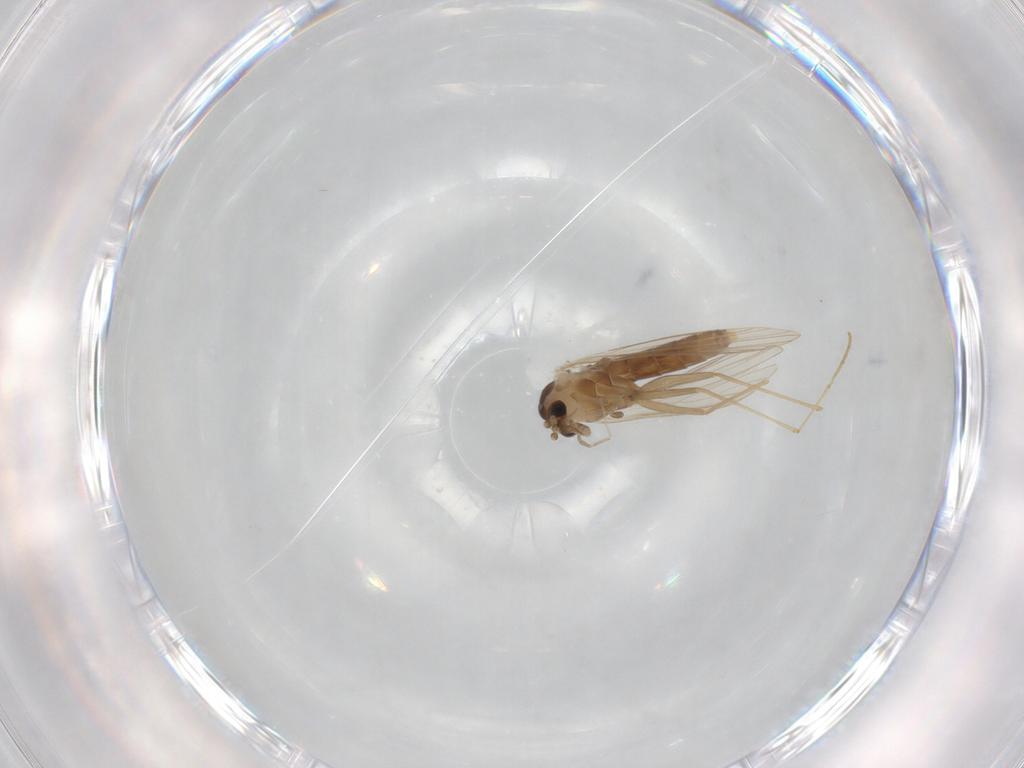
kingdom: Animalia
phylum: Arthropoda
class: Insecta
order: Diptera
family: Psychodidae
